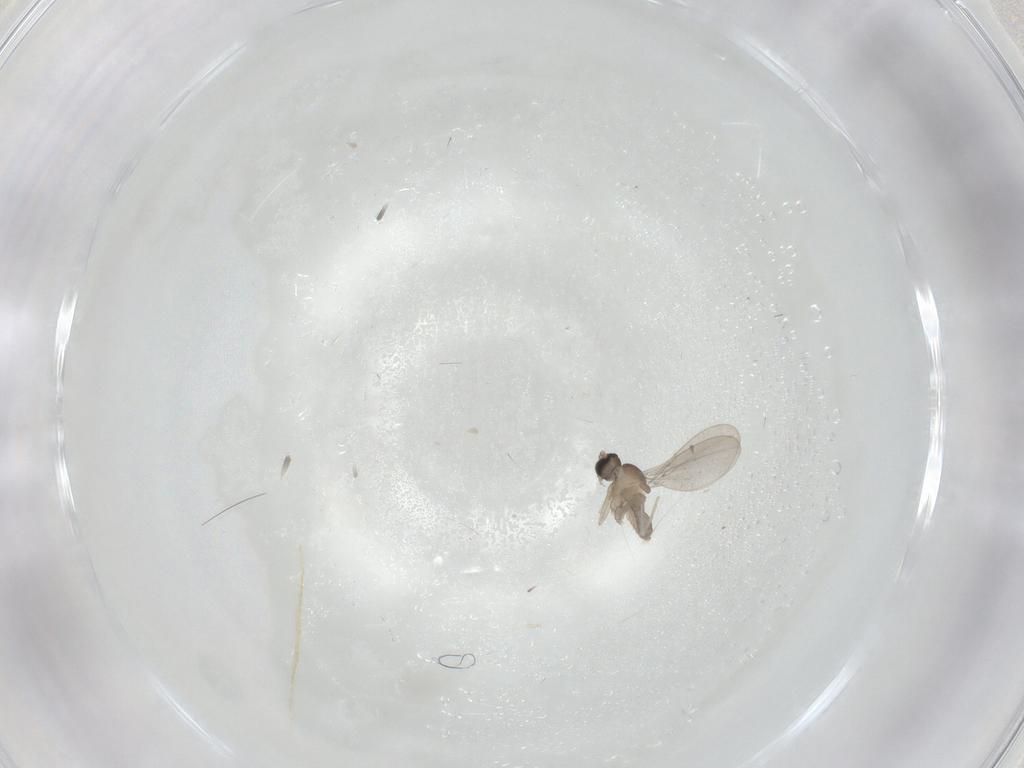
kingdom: Animalia
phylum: Arthropoda
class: Insecta
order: Diptera
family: Cecidomyiidae
